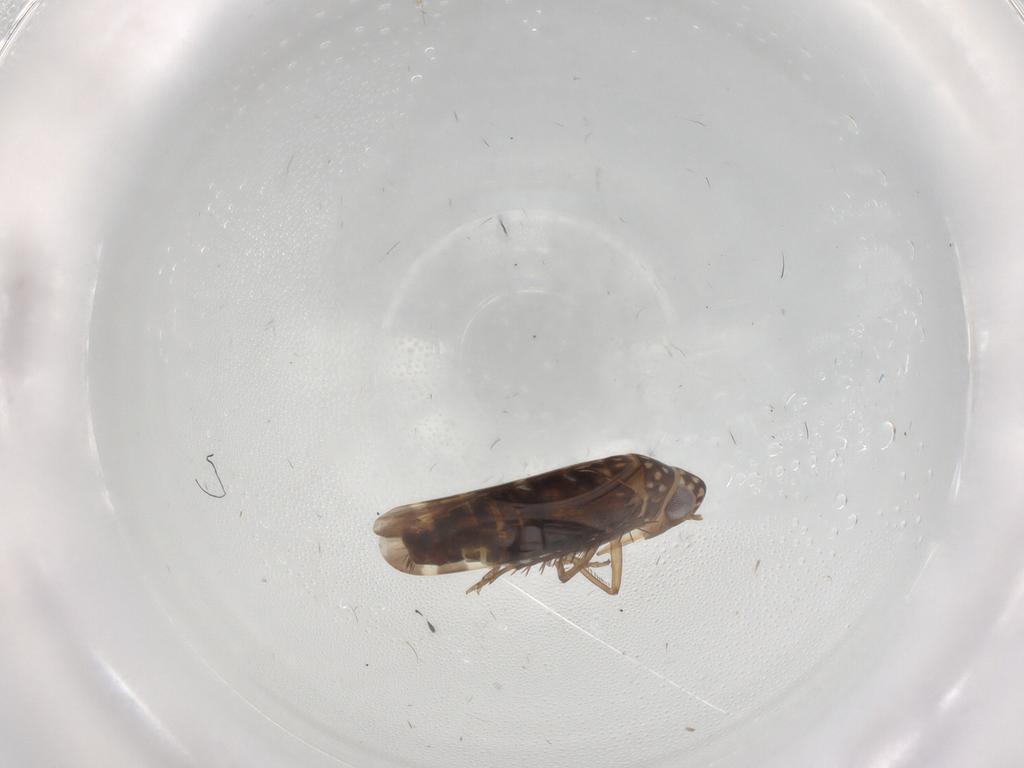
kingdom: Animalia
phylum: Arthropoda
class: Insecta
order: Hemiptera
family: Cicadellidae
